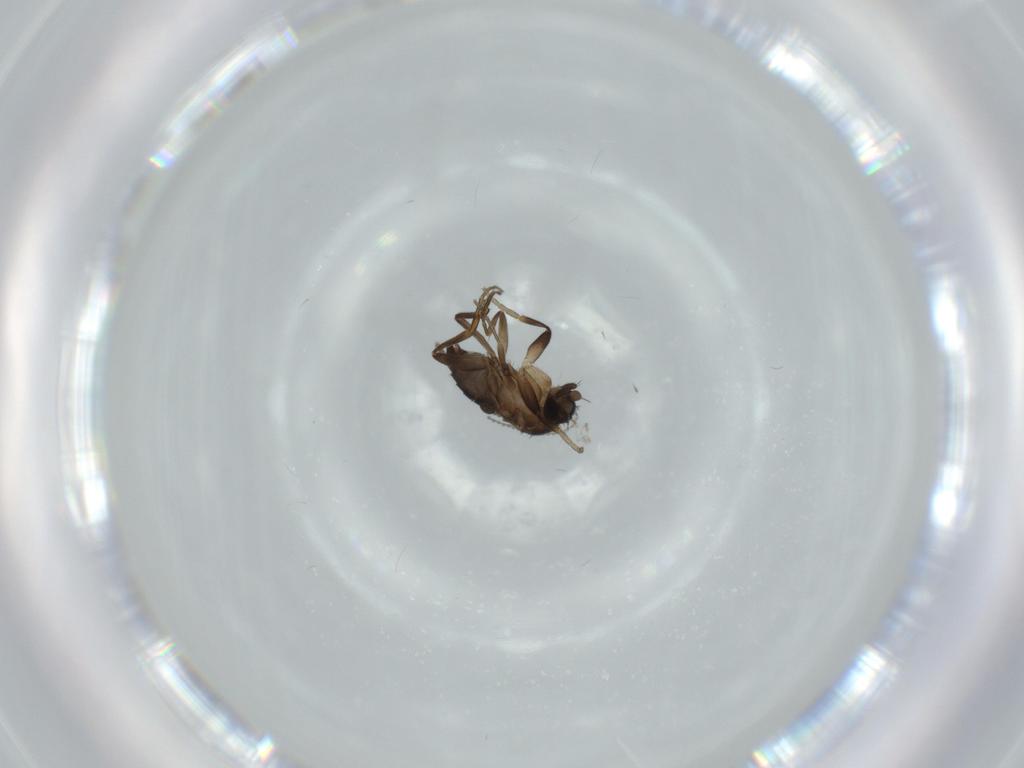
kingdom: Animalia
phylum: Arthropoda
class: Insecta
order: Diptera
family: Phoridae
